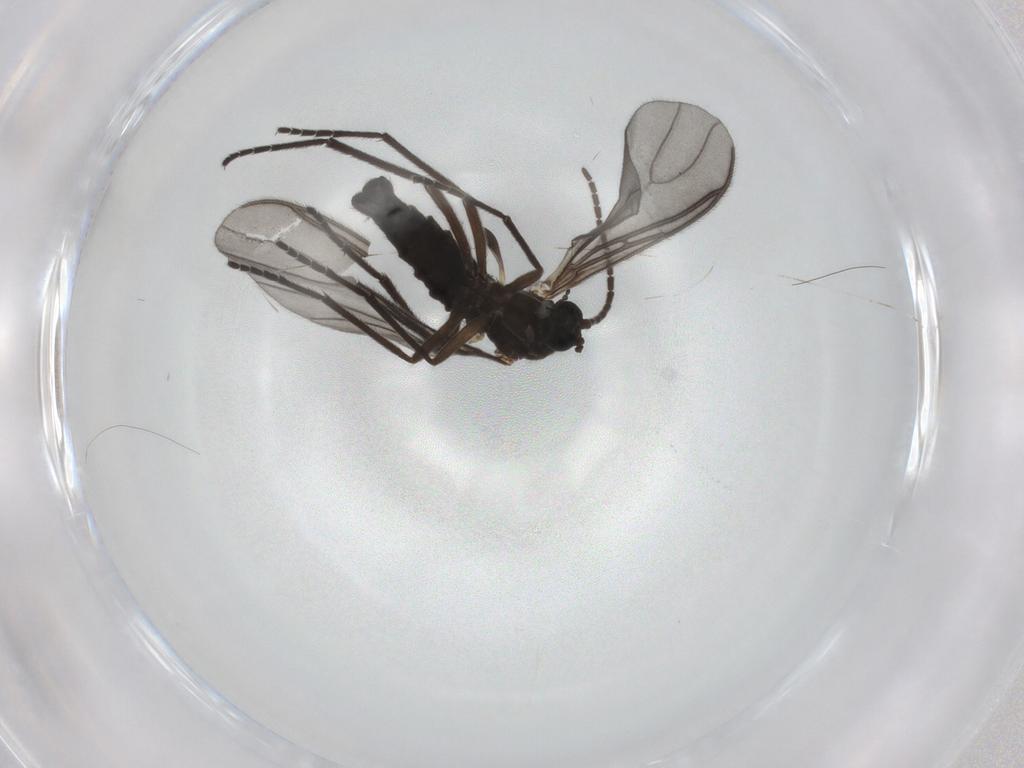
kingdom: Animalia
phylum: Arthropoda
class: Insecta
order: Diptera
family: Sciaridae
